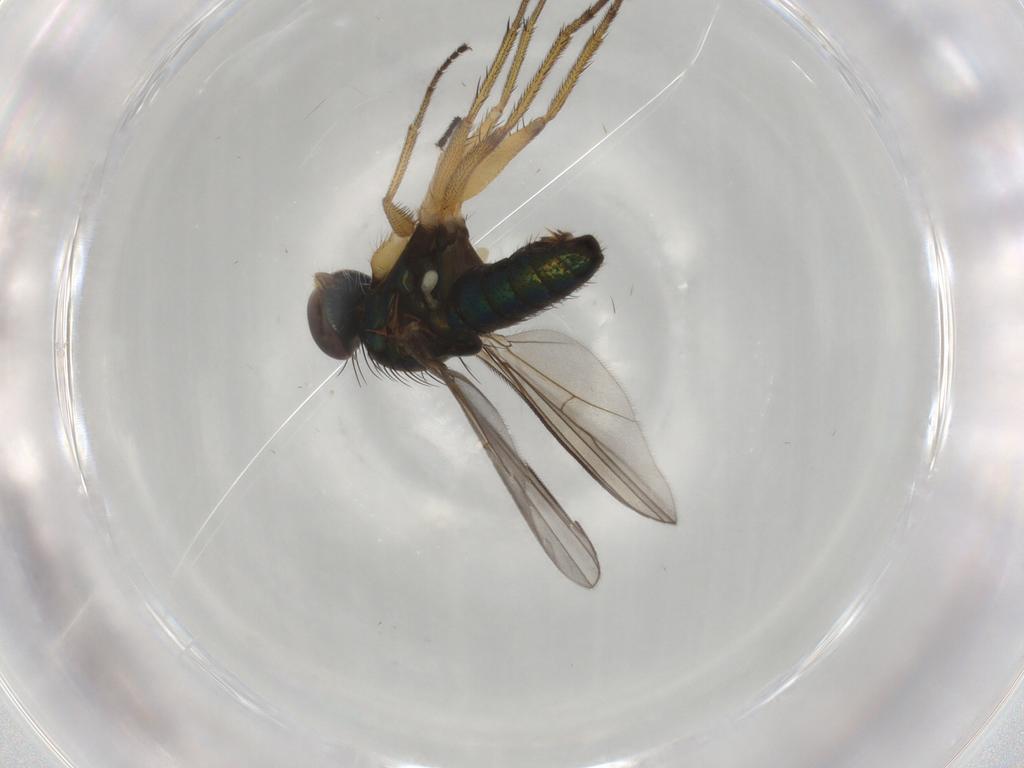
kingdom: Animalia
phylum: Arthropoda
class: Insecta
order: Diptera
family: Dolichopodidae
